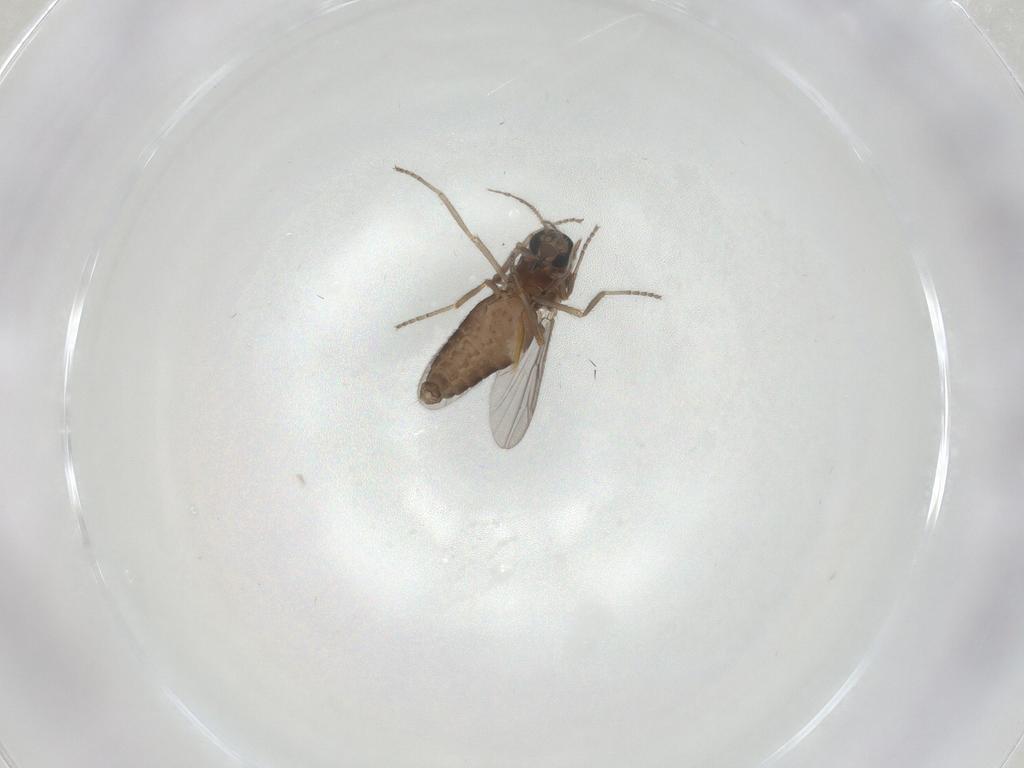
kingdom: Animalia
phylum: Arthropoda
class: Insecta
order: Diptera
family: Ceratopogonidae
